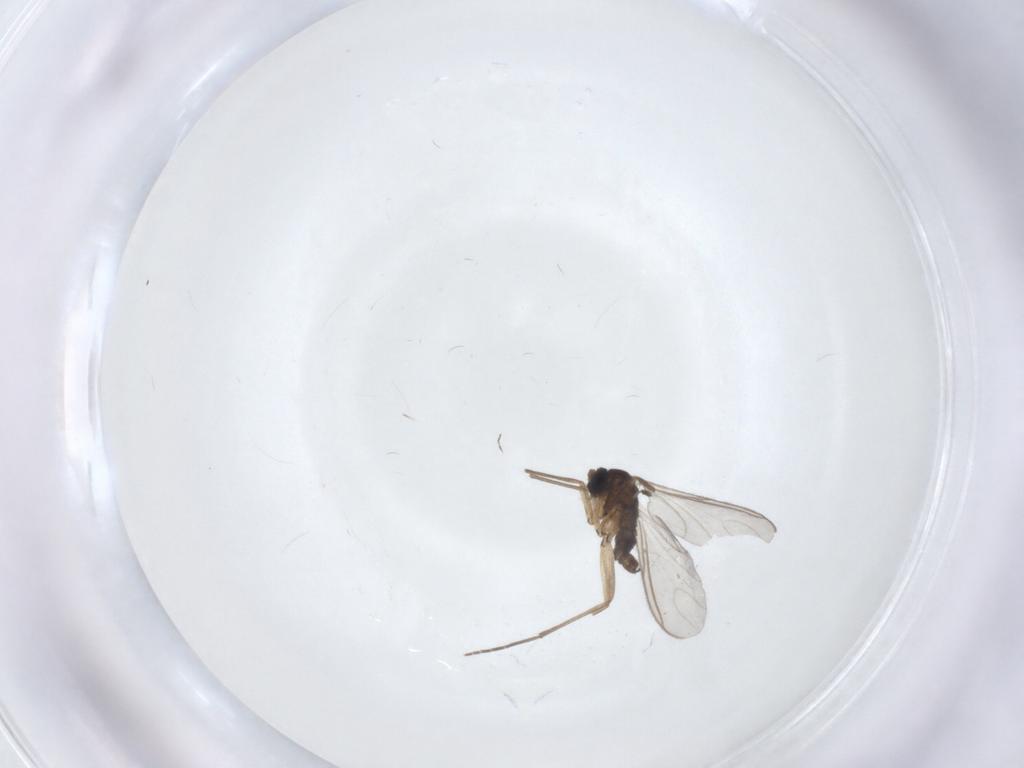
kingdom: Animalia
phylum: Arthropoda
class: Insecta
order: Diptera
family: Sciaridae
